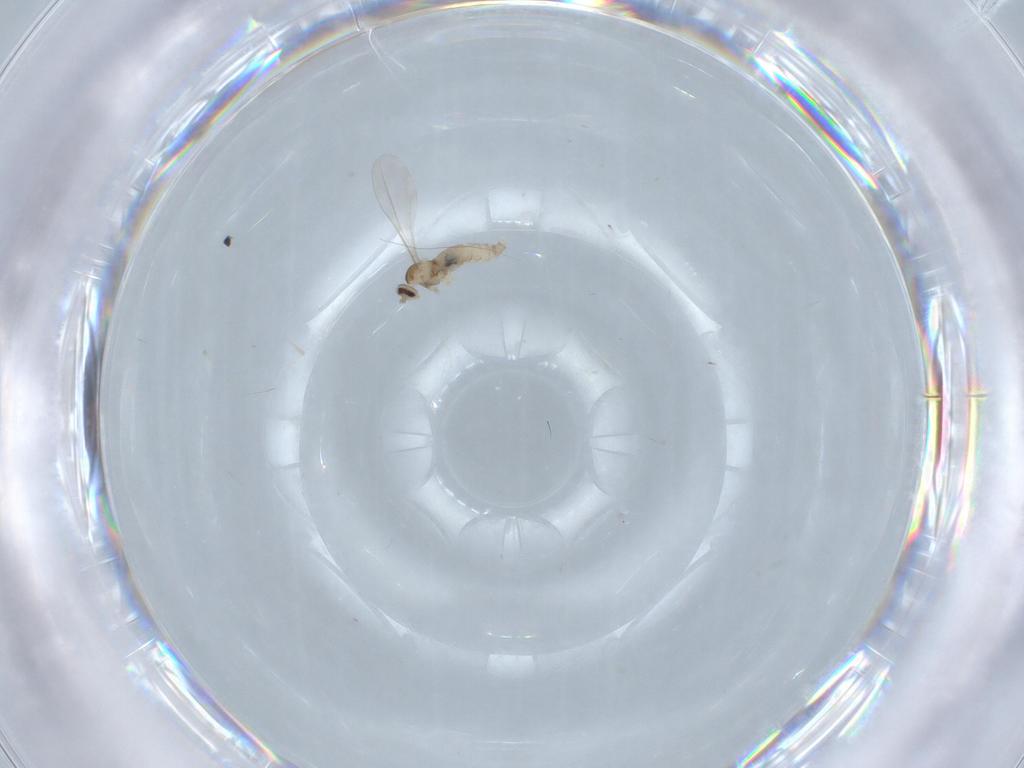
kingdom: Animalia
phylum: Arthropoda
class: Insecta
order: Diptera
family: Cecidomyiidae
